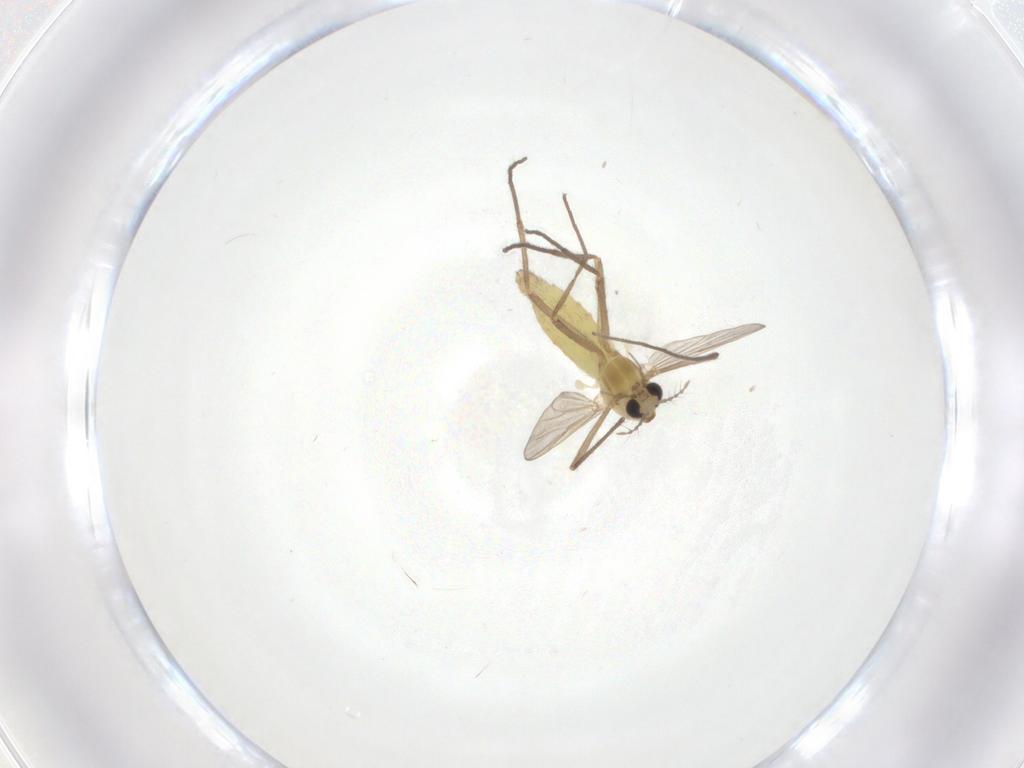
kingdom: Animalia
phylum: Arthropoda
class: Insecta
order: Diptera
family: Chironomidae
